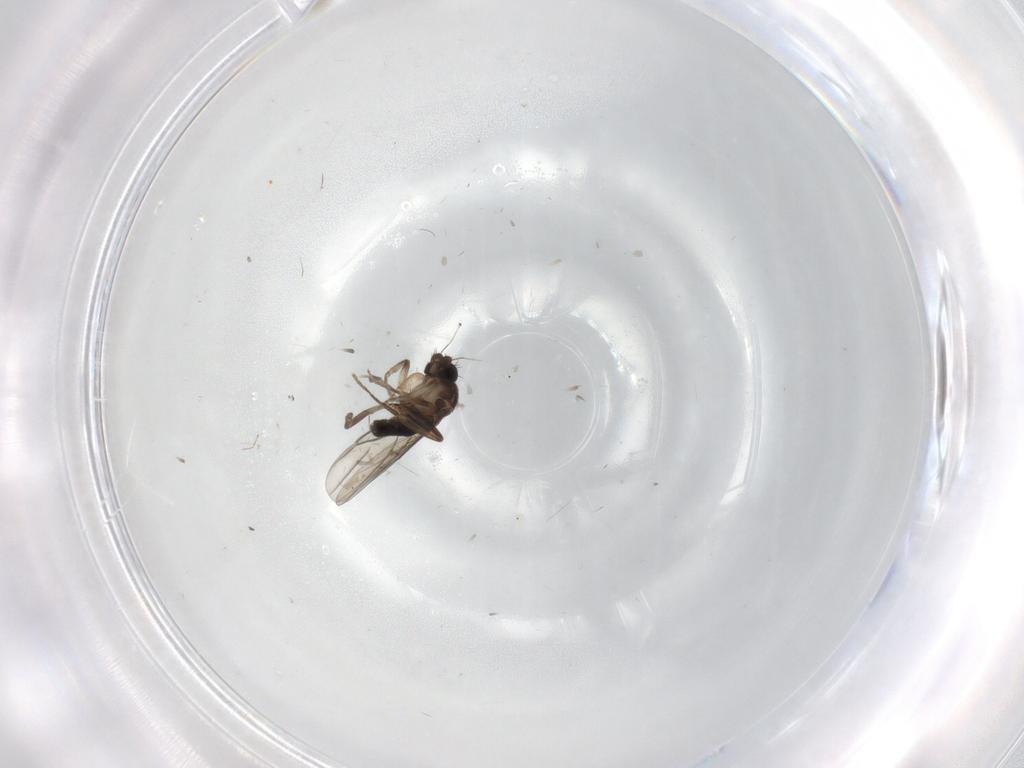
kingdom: Animalia
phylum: Arthropoda
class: Insecta
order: Diptera
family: Phoridae
